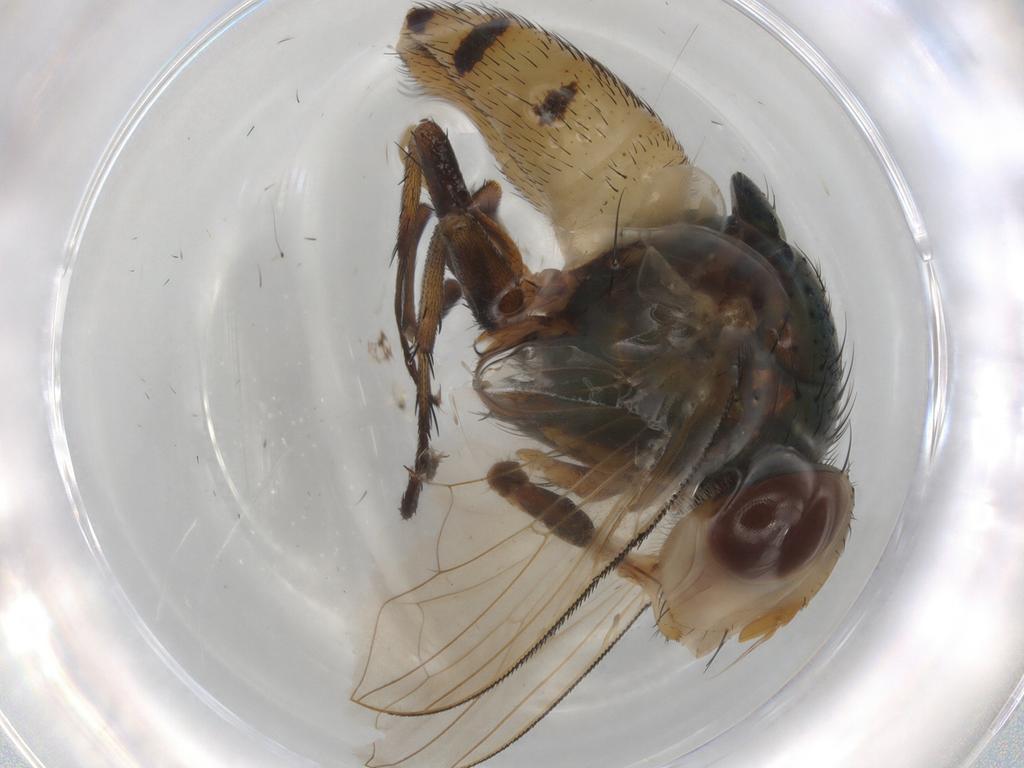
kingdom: Animalia
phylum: Arthropoda
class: Insecta
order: Diptera
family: Calliphoridae
